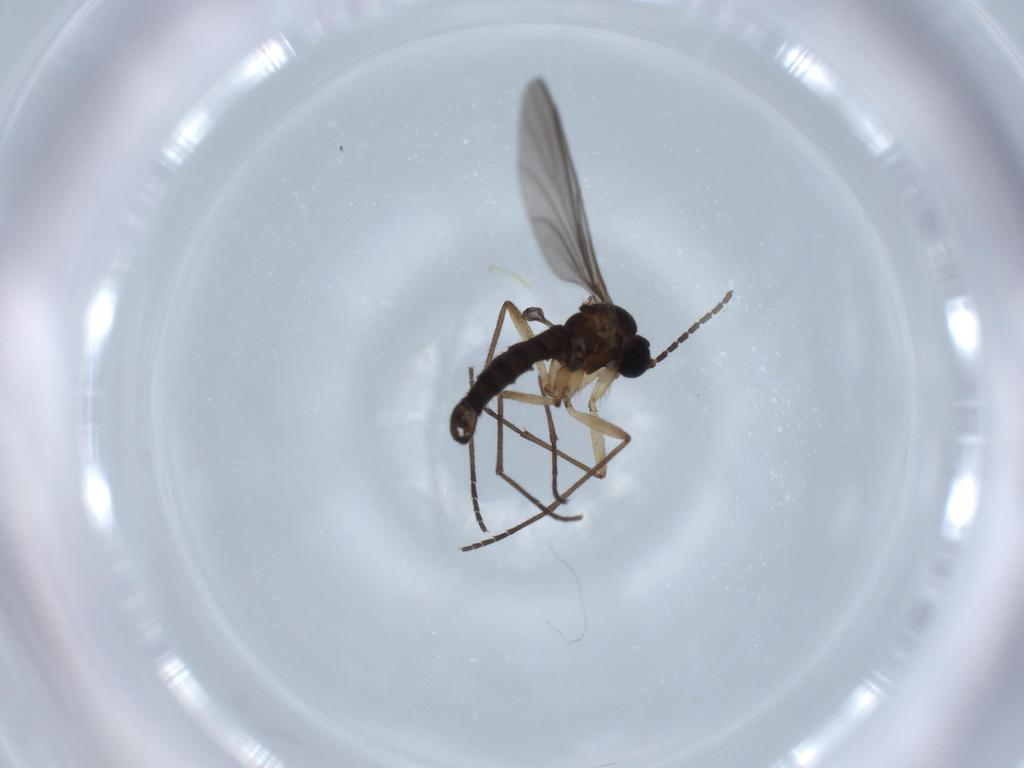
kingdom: Animalia
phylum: Arthropoda
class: Insecta
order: Diptera
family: Sciaridae
